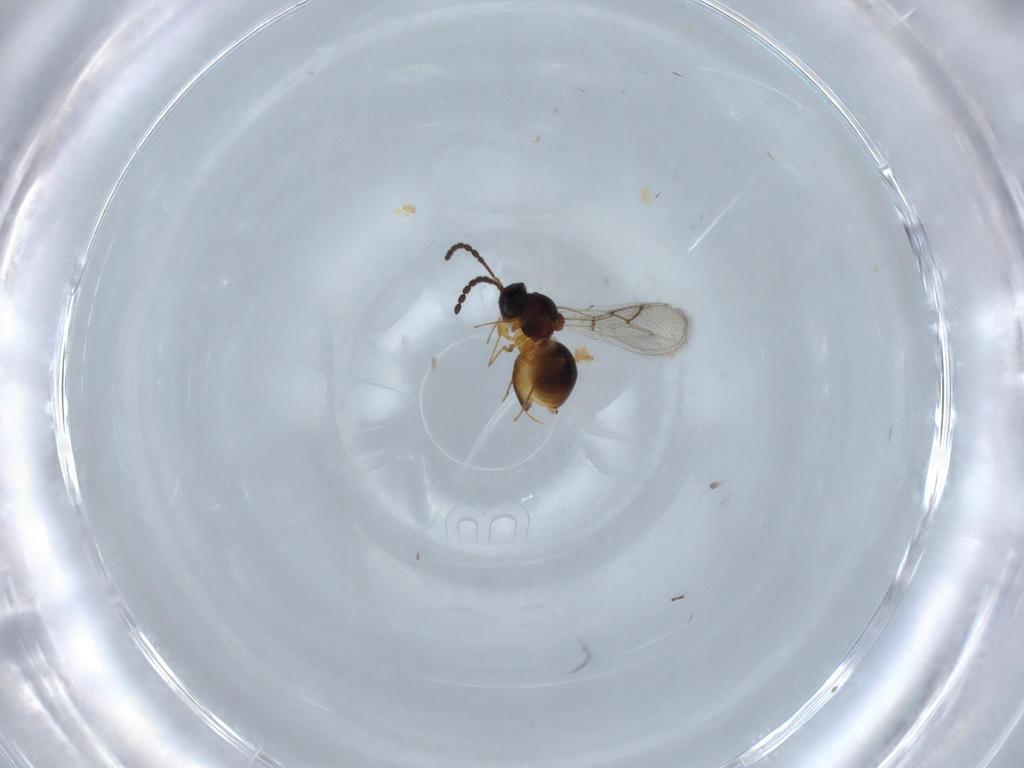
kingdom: Animalia
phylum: Arthropoda
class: Insecta
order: Hymenoptera
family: Figitidae
